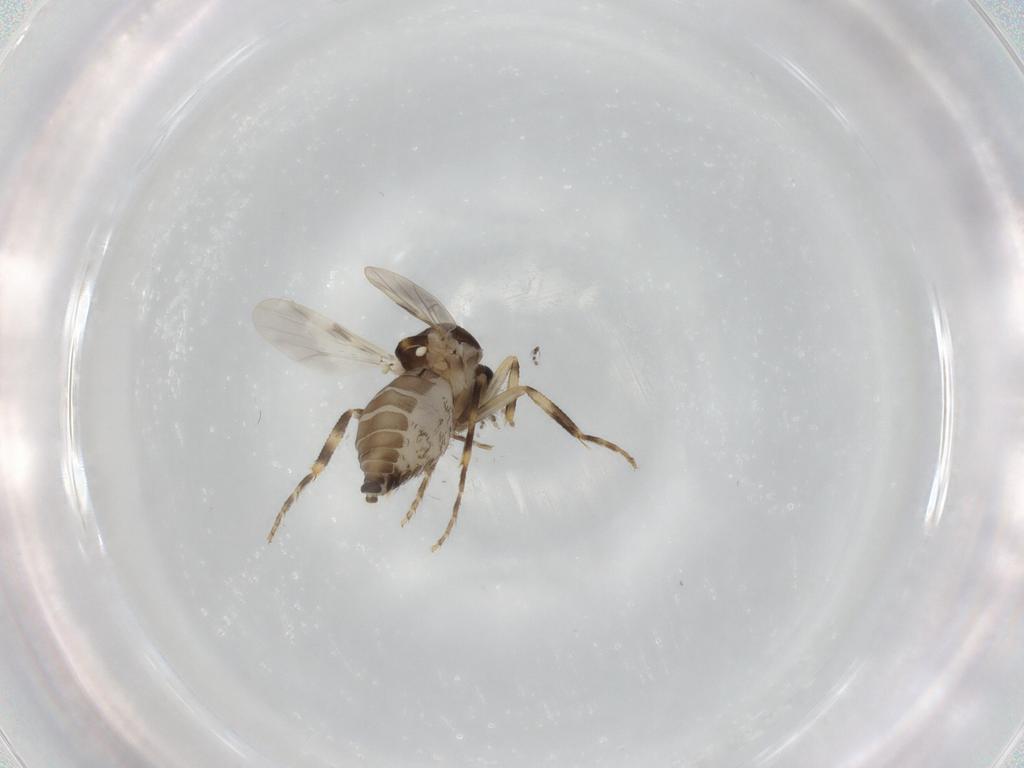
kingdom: Animalia
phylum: Arthropoda
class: Insecta
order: Diptera
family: Ceratopogonidae
